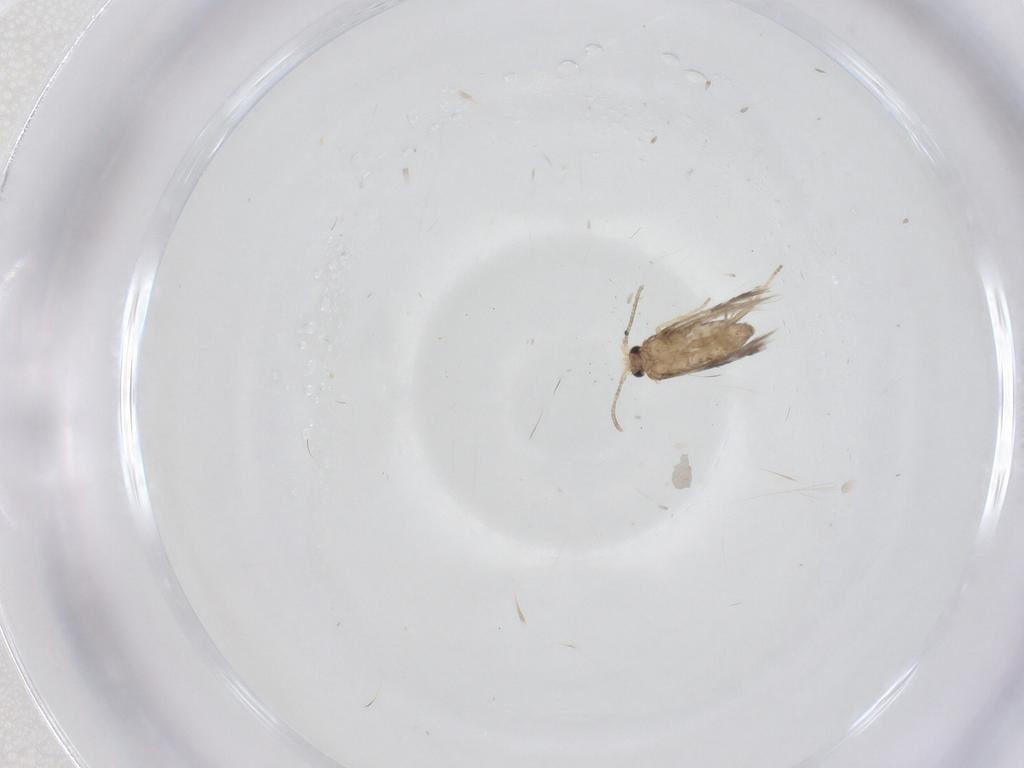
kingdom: Animalia
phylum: Arthropoda
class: Insecta
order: Lepidoptera
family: Nepticulidae
